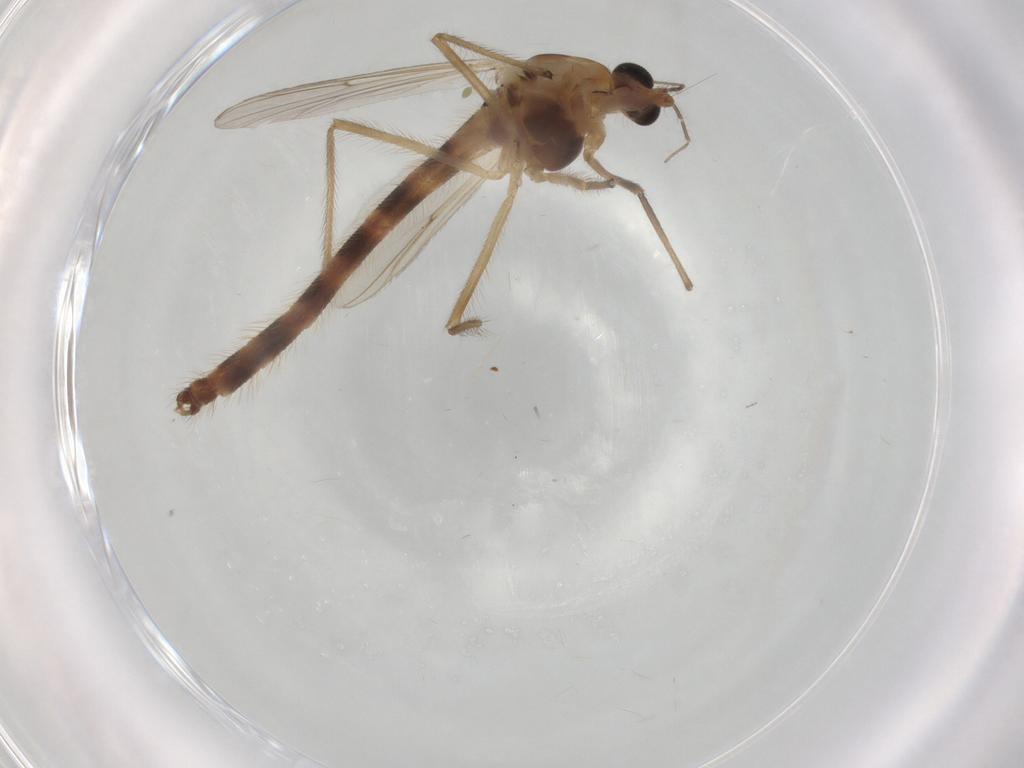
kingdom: Animalia
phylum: Arthropoda
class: Insecta
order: Diptera
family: Chironomidae
